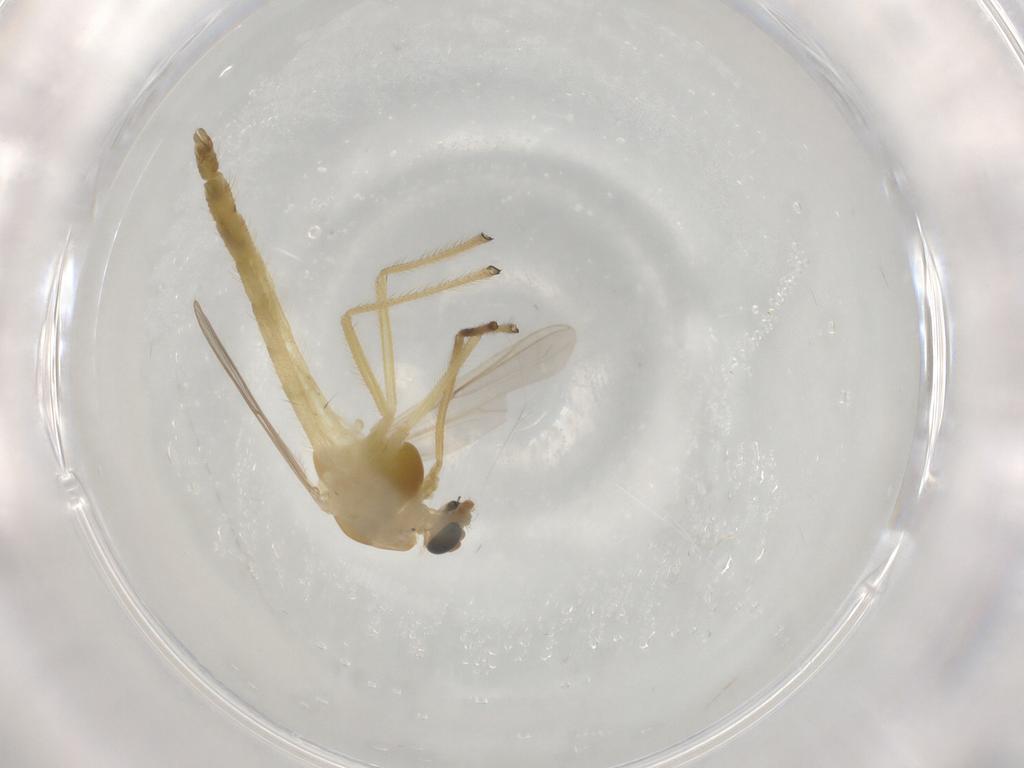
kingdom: Animalia
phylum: Arthropoda
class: Insecta
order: Diptera
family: Chironomidae
